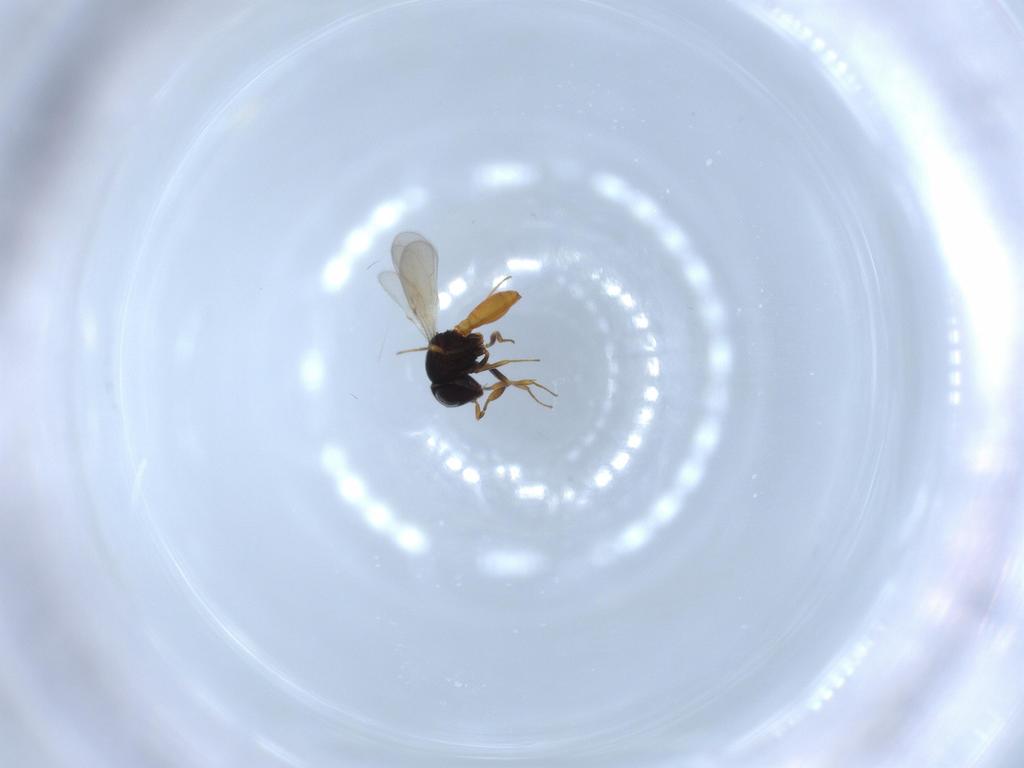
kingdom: Animalia
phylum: Arthropoda
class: Insecta
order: Hymenoptera
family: Scelionidae
